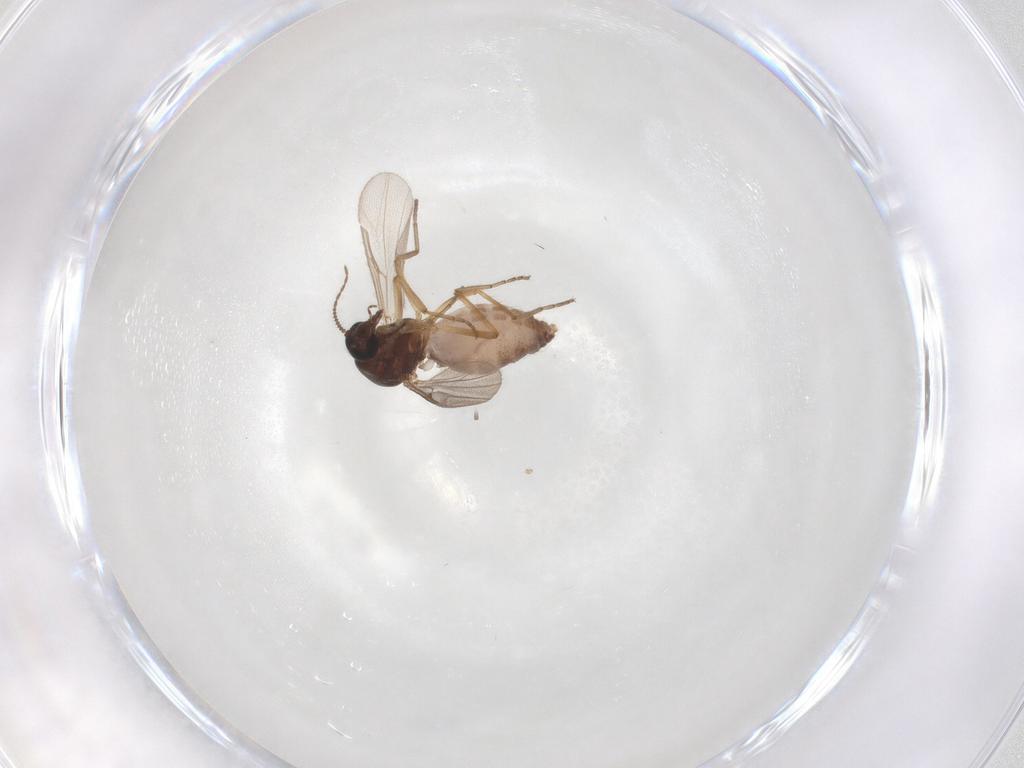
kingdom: Animalia
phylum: Arthropoda
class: Insecta
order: Diptera
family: Ceratopogonidae
